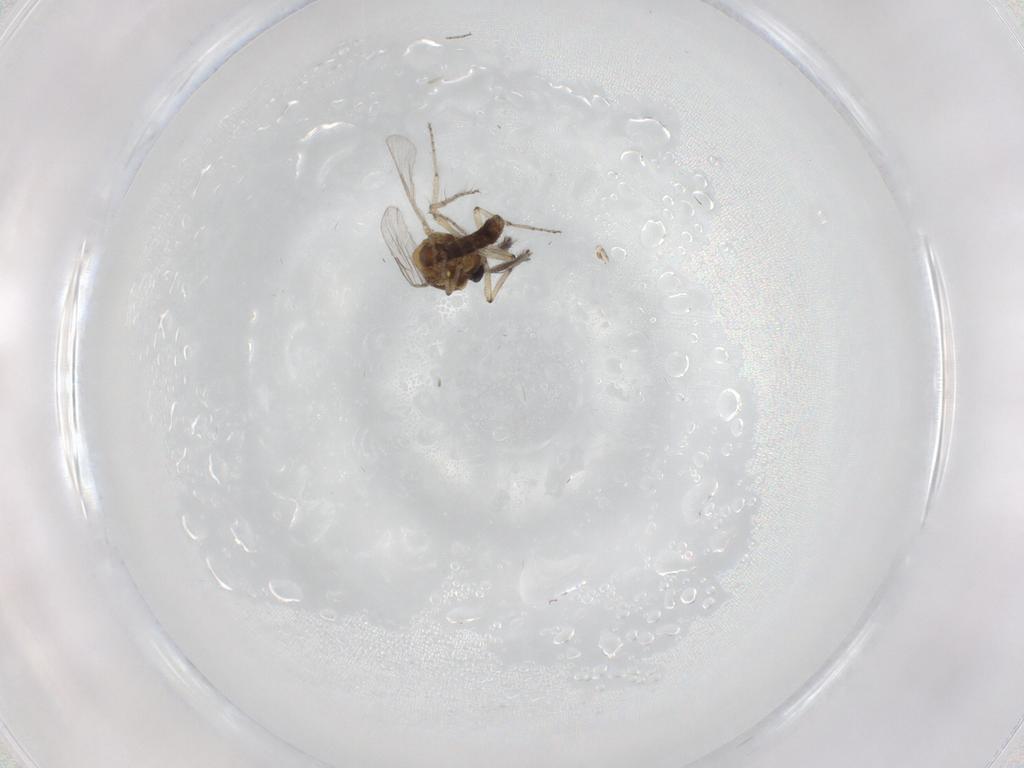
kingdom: Animalia
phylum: Arthropoda
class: Insecta
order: Diptera
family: Ceratopogonidae
